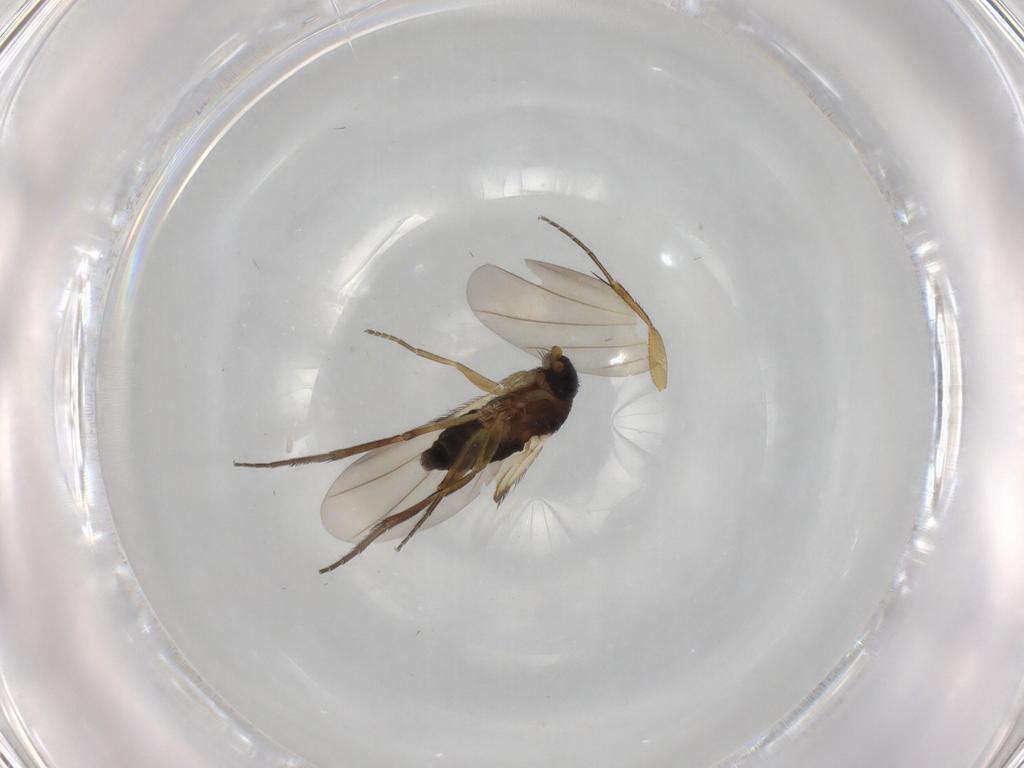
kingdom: Animalia
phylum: Arthropoda
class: Insecta
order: Diptera
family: Phoridae
